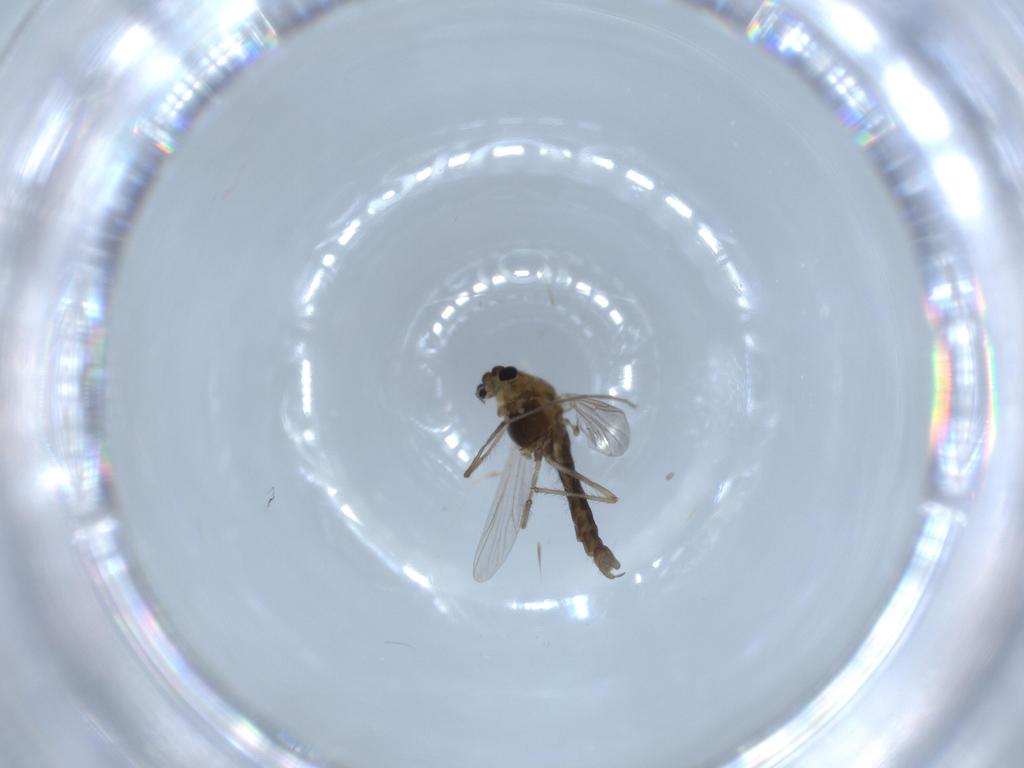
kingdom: Animalia
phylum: Arthropoda
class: Insecta
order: Diptera
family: Chironomidae
